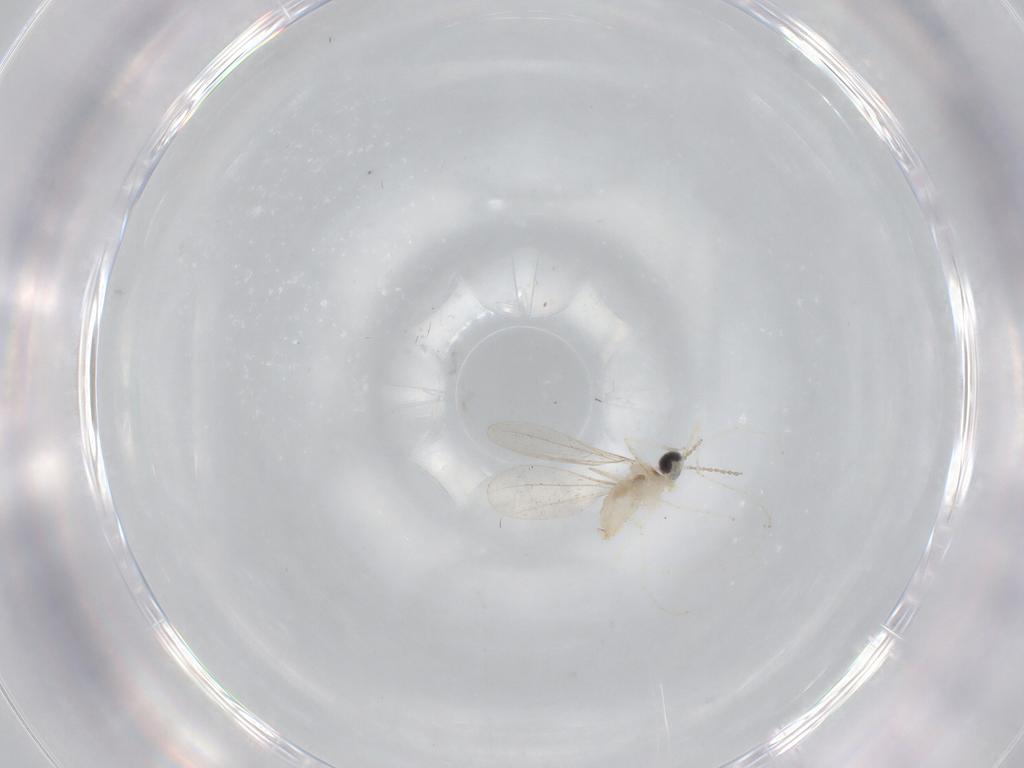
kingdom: Animalia
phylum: Arthropoda
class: Insecta
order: Diptera
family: Cecidomyiidae
